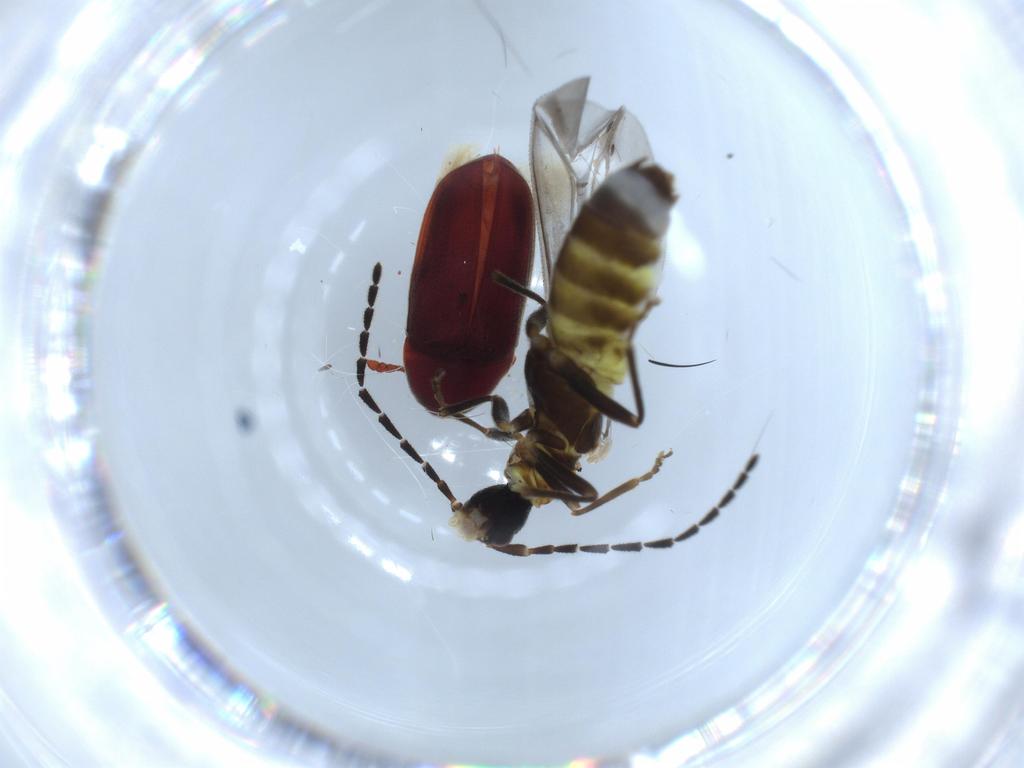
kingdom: Animalia
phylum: Arthropoda
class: Insecta
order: Coleoptera
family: Throscidae
